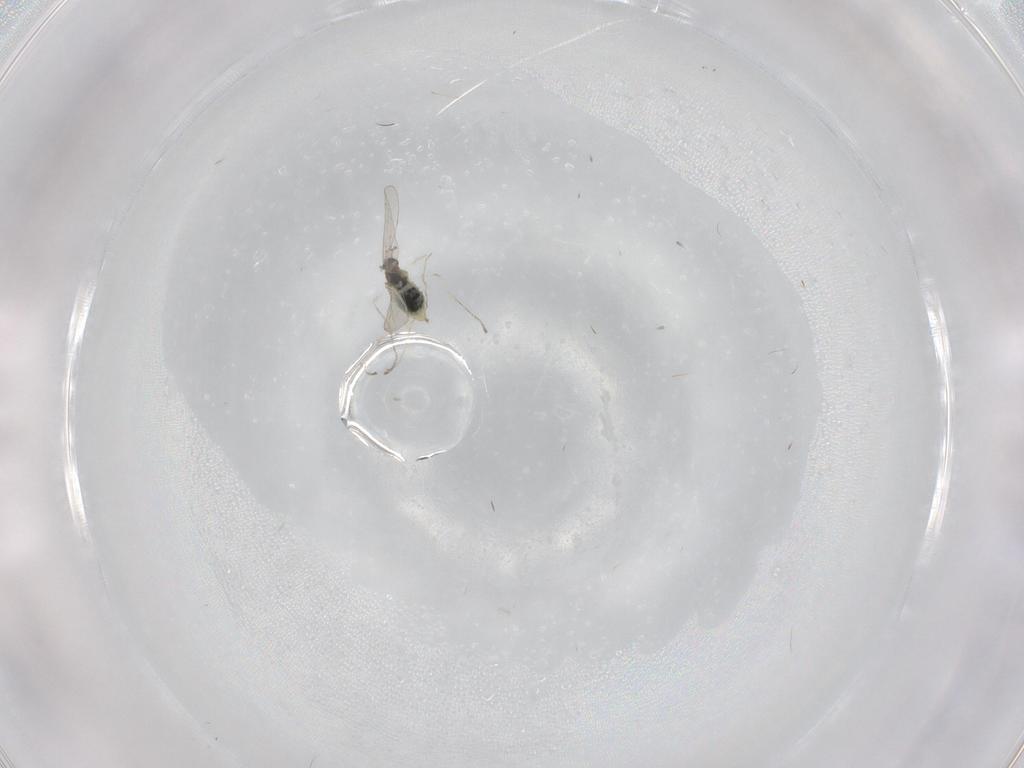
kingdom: Animalia
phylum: Arthropoda
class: Insecta
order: Diptera
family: Cecidomyiidae
